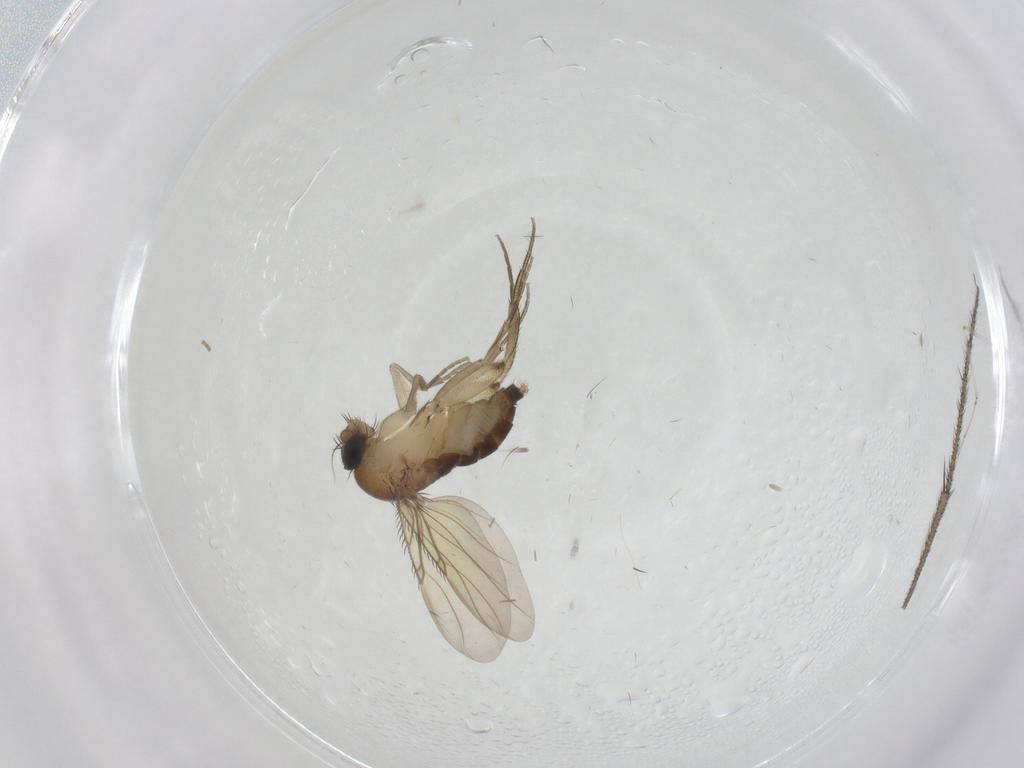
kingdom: Animalia
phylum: Arthropoda
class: Insecta
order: Diptera
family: Ditomyiidae
